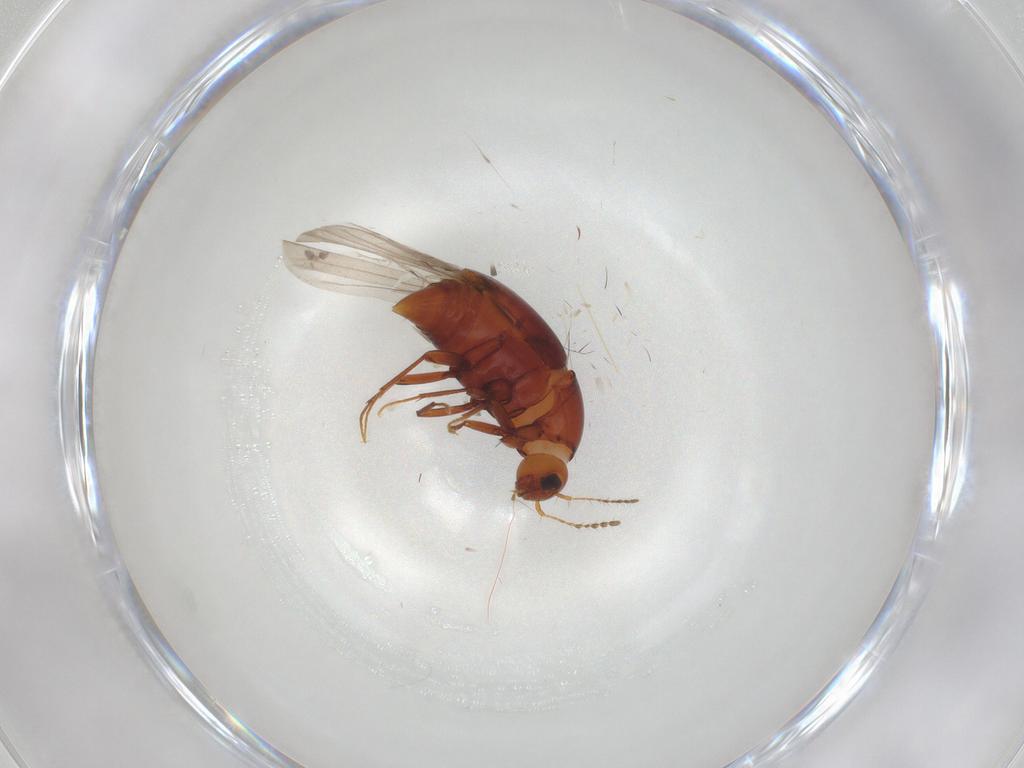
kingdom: Animalia
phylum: Arthropoda
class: Insecta
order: Coleoptera
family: Staphylinidae
